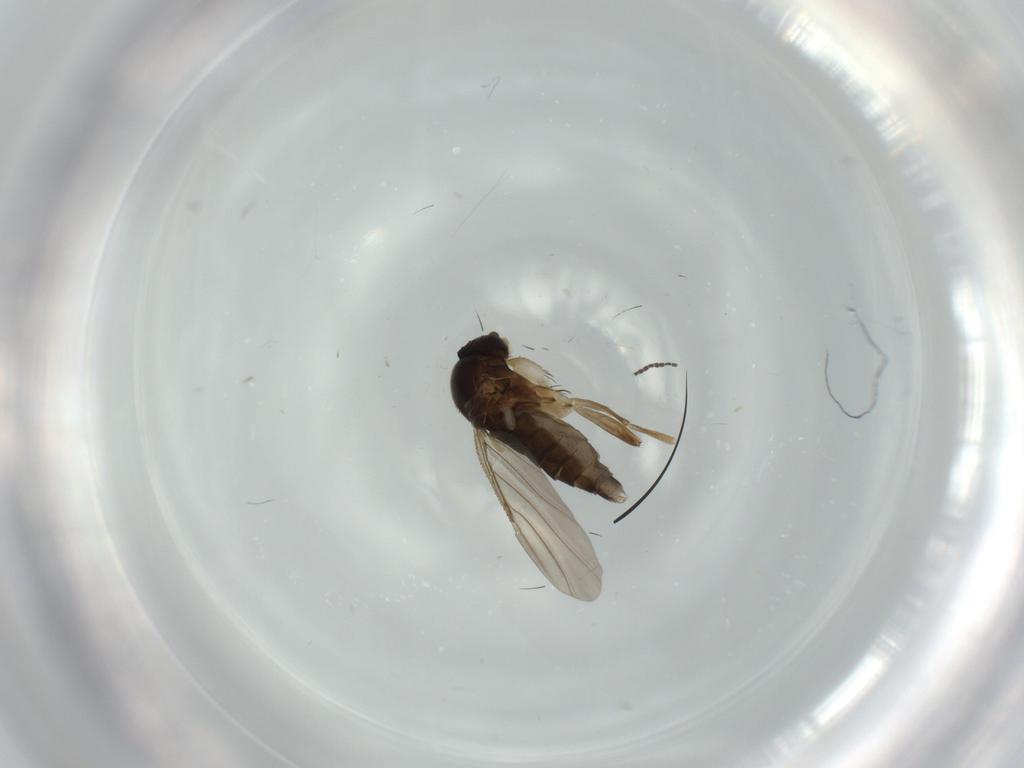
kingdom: Animalia
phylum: Arthropoda
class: Insecta
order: Diptera
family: Phoridae
